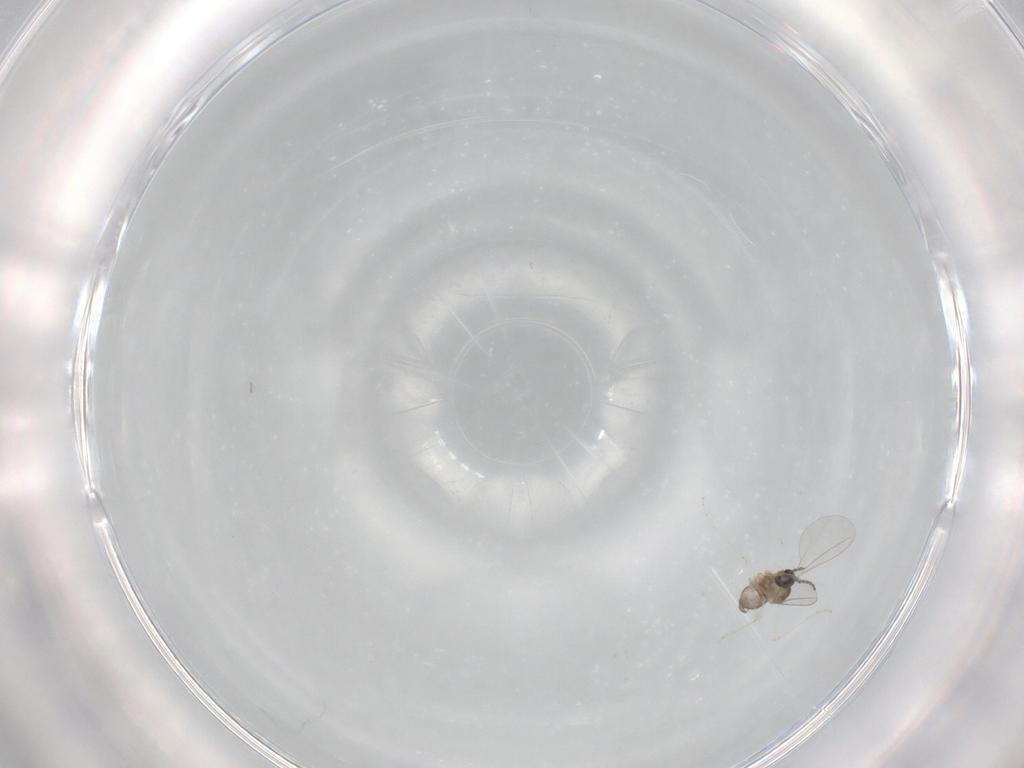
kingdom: Animalia
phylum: Arthropoda
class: Insecta
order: Diptera
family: Cecidomyiidae
